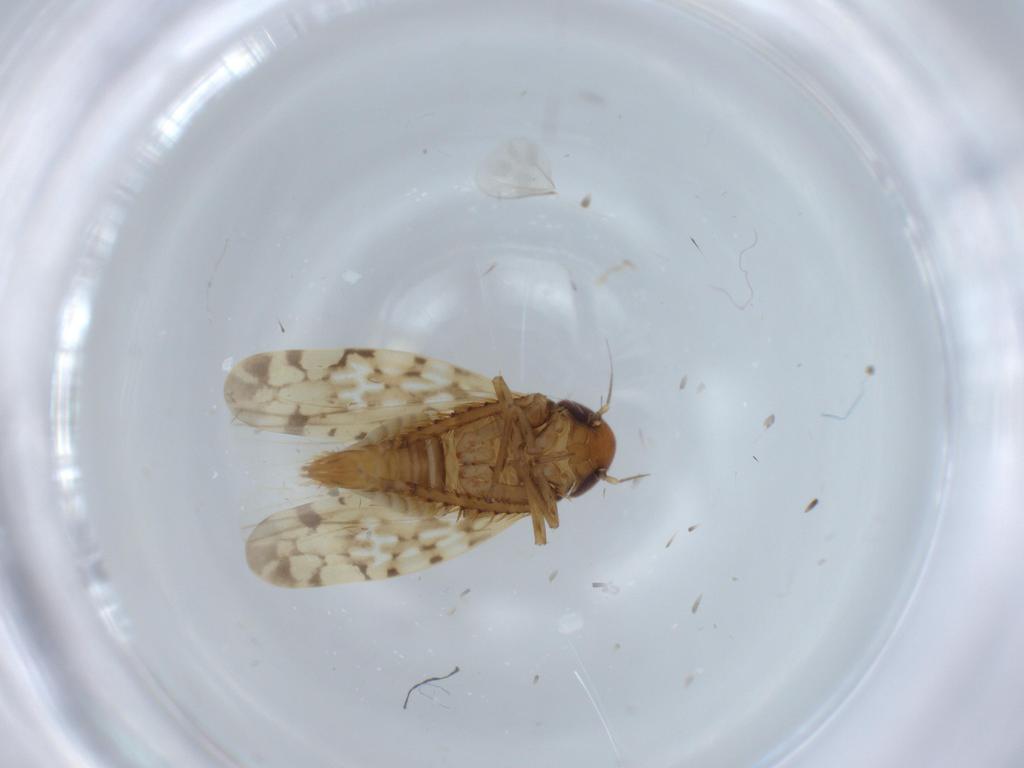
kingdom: Animalia
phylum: Arthropoda
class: Insecta
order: Hemiptera
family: Cicadellidae
